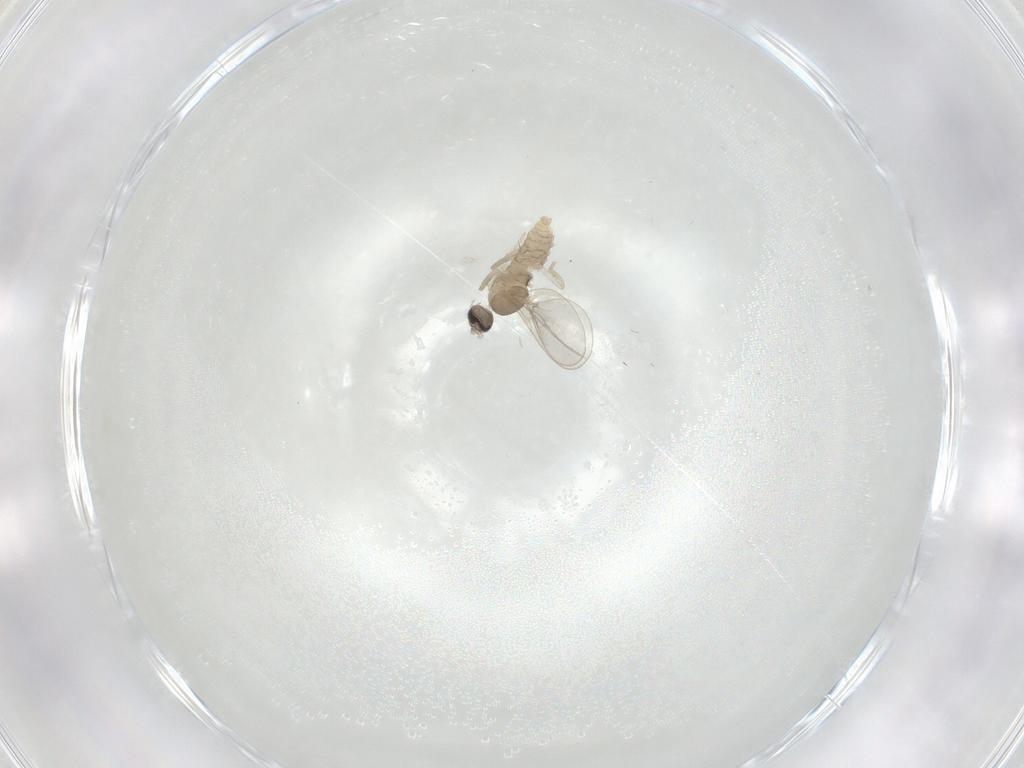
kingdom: Animalia
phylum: Arthropoda
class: Insecta
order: Diptera
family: Cecidomyiidae
